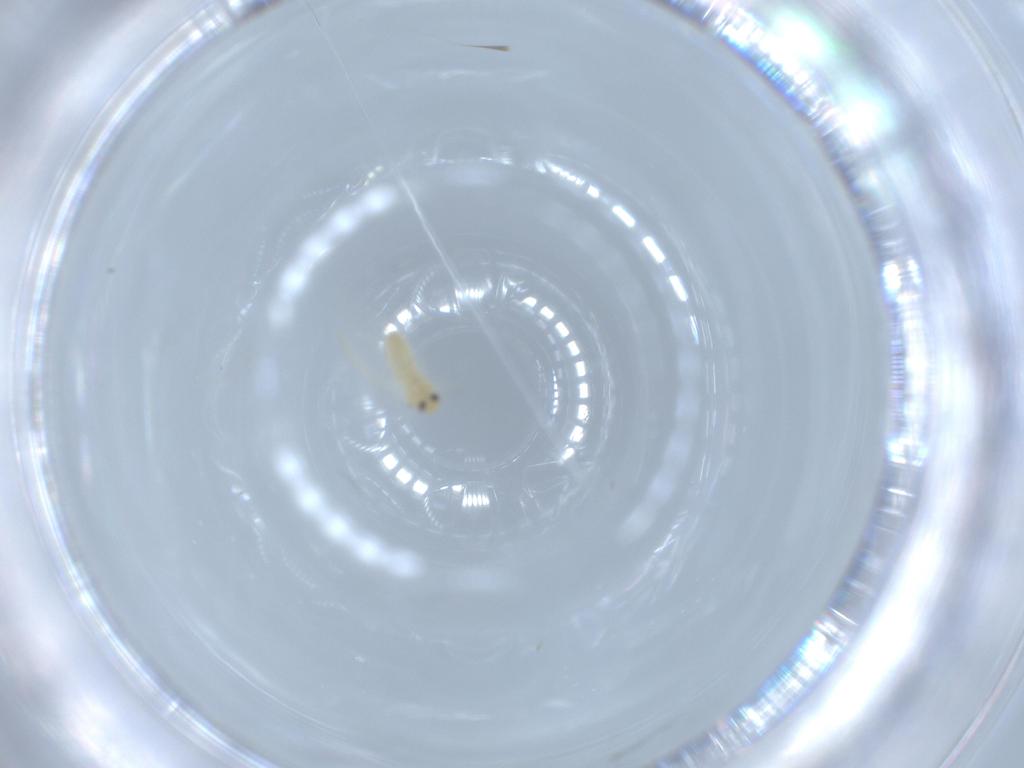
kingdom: Animalia
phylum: Arthropoda
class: Insecta
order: Hemiptera
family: Aleyrodidae
